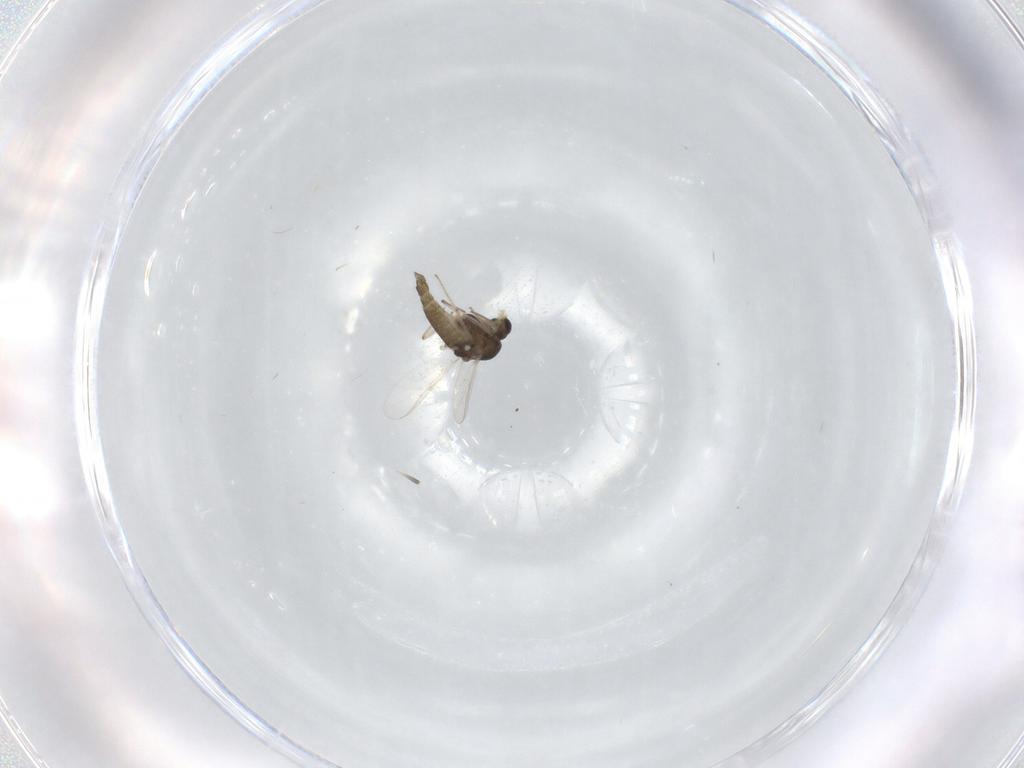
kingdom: Animalia
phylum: Arthropoda
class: Insecta
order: Diptera
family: Chironomidae
